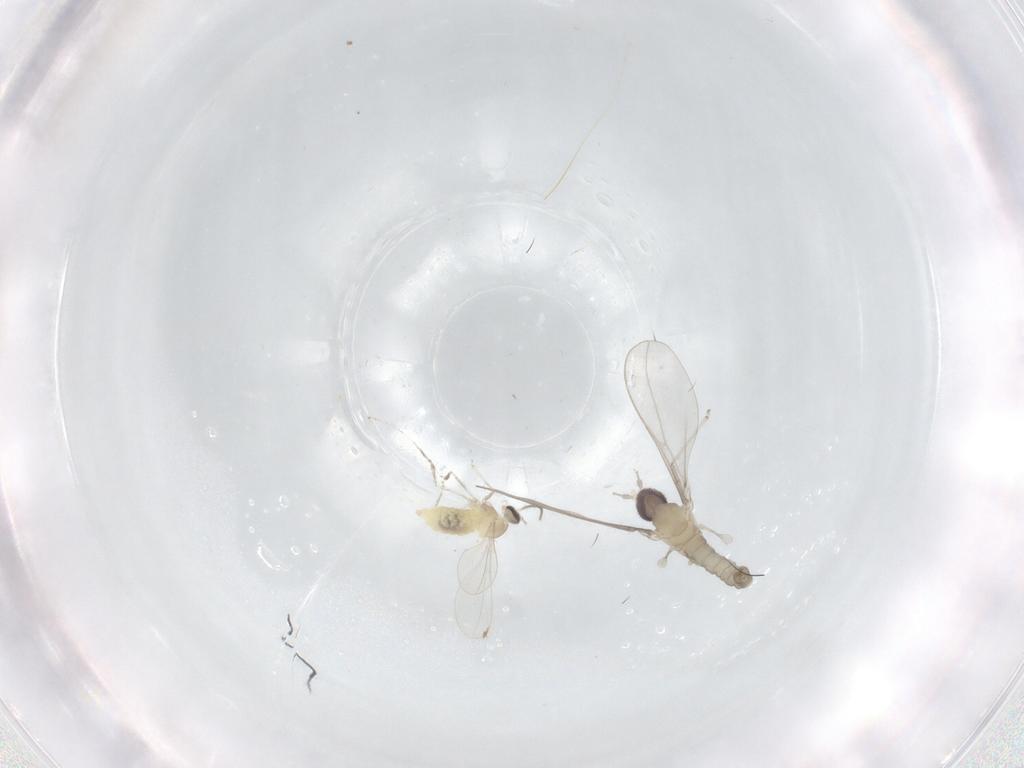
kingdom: Animalia
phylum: Arthropoda
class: Insecta
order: Diptera
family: Cecidomyiidae
